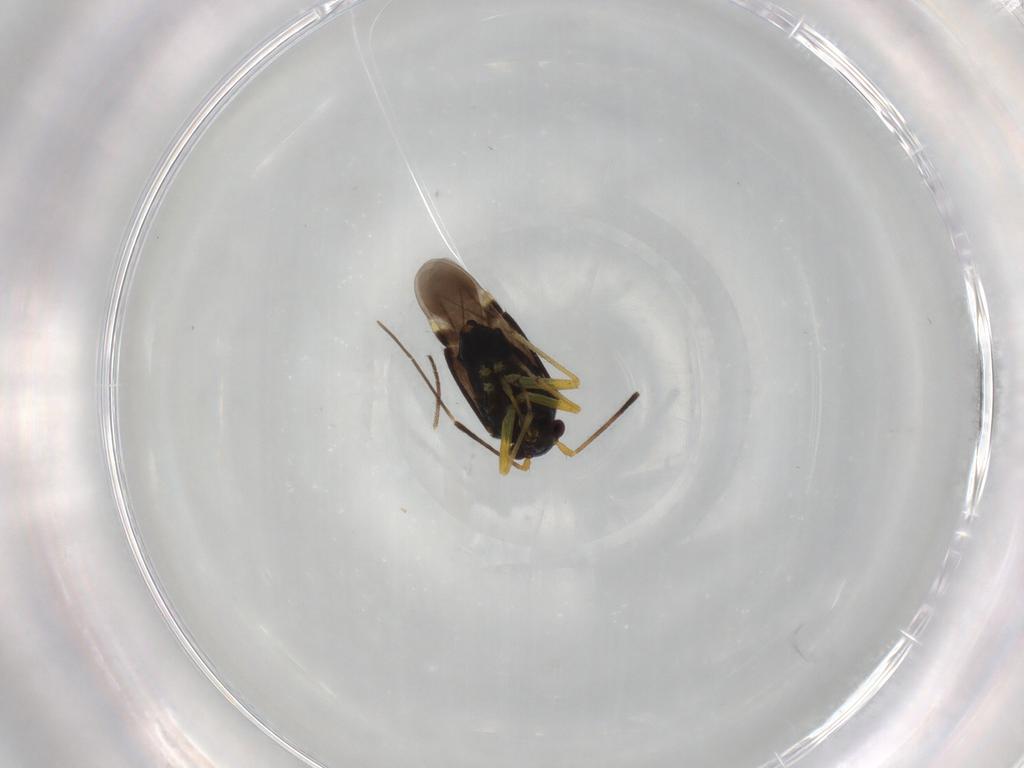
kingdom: Animalia
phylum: Arthropoda
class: Insecta
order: Hemiptera
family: Miridae
